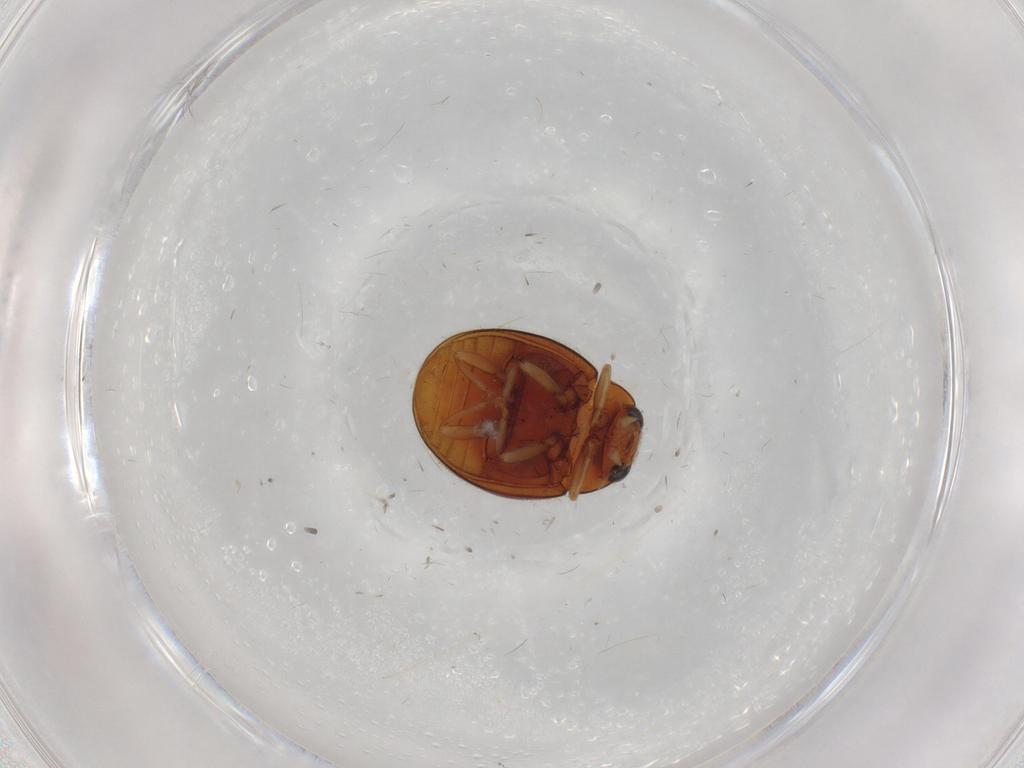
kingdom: Animalia
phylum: Arthropoda
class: Insecta
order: Coleoptera
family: Coccinellidae
